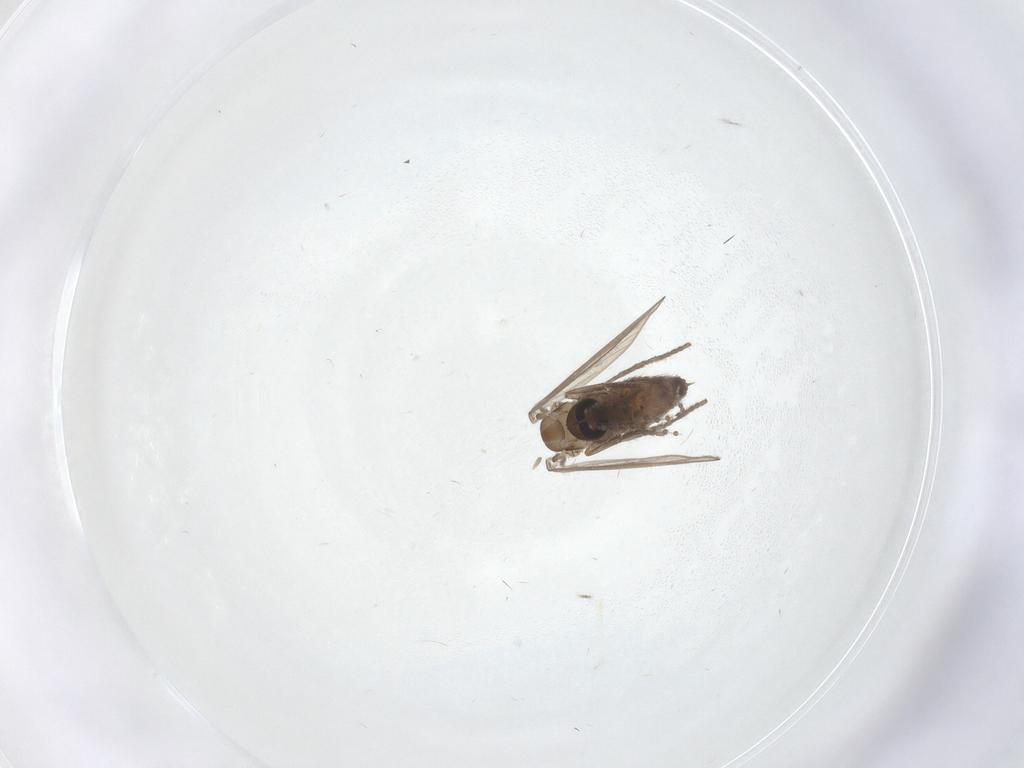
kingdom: Animalia
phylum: Arthropoda
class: Insecta
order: Diptera
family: Psychodidae
